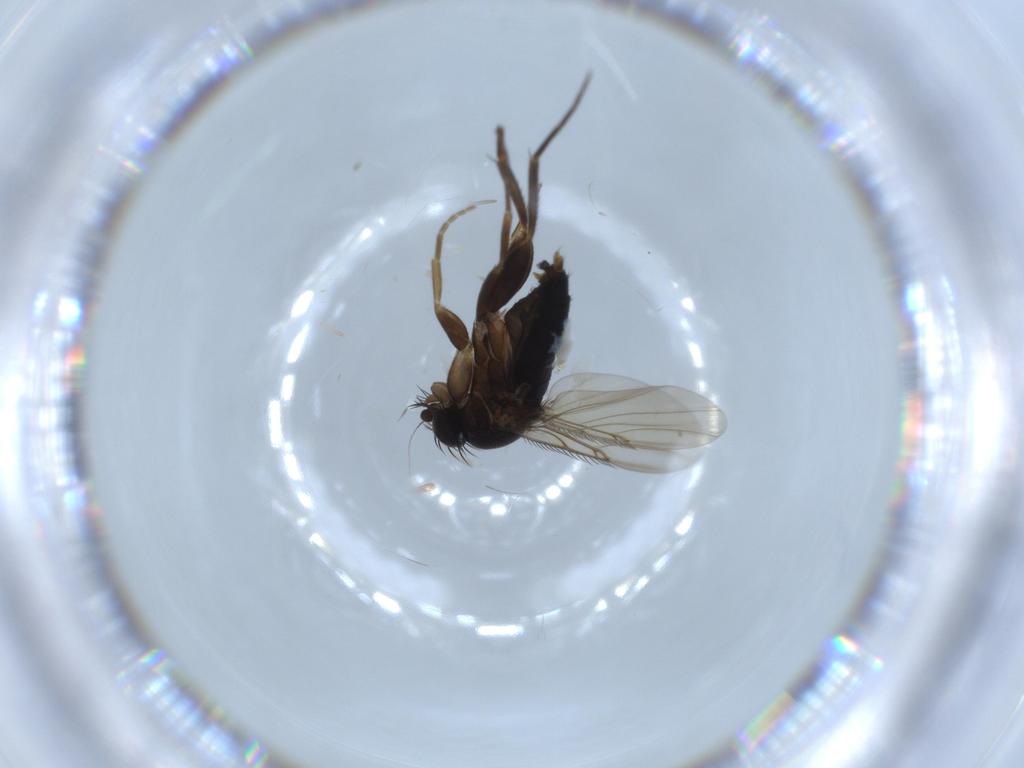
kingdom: Animalia
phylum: Arthropoda
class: Insecta
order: Diptera
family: Phoridae
